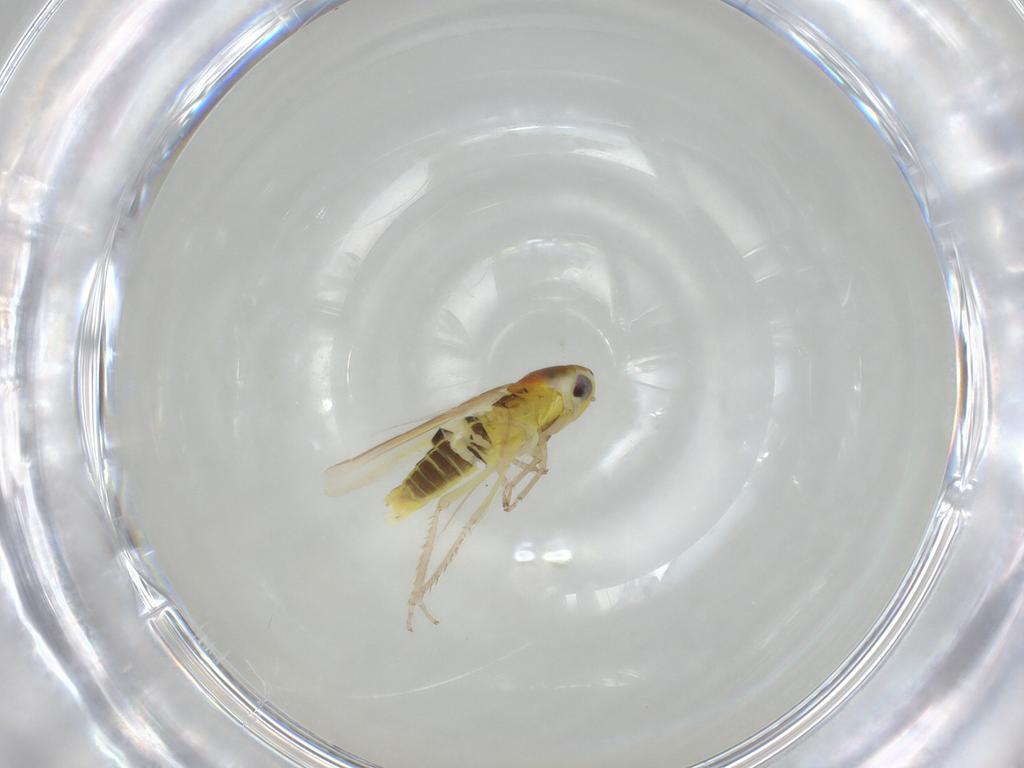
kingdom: Animalia
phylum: Arthropoda
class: Insecta
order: Hemiptera
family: Cicadellidae
